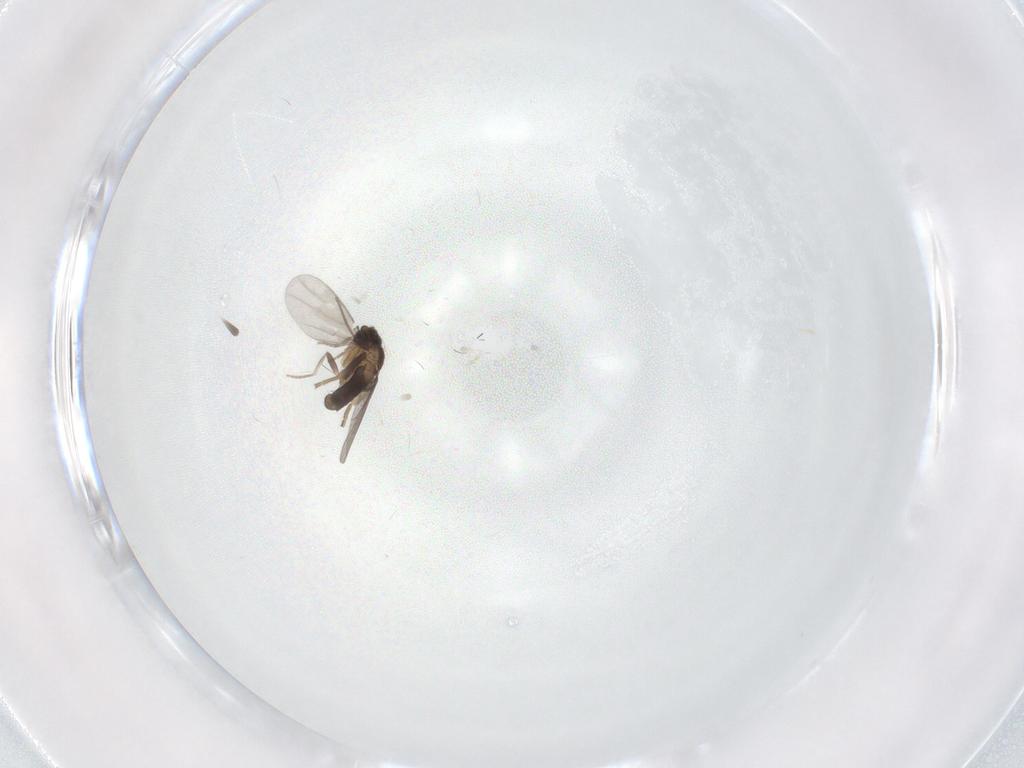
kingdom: Animalia
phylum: Arthropoda
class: Insecta
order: Diptera
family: Phoridae
